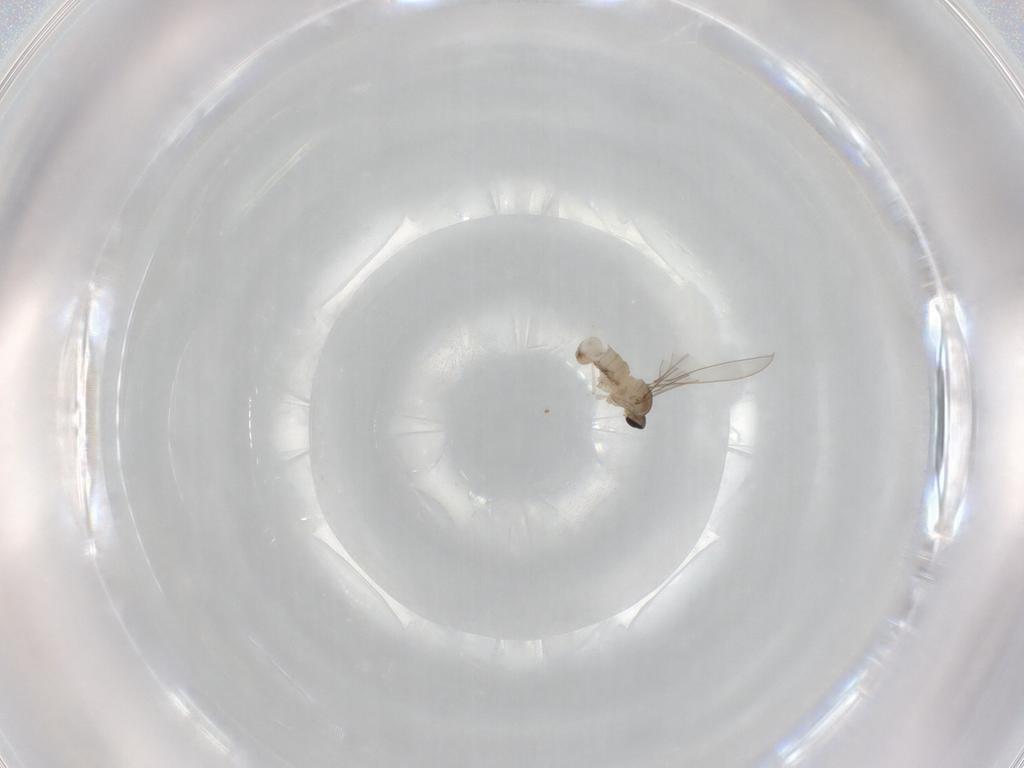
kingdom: Animalia
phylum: Arthropoda
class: Insecta
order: Diptera
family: Cecidomyiidae
